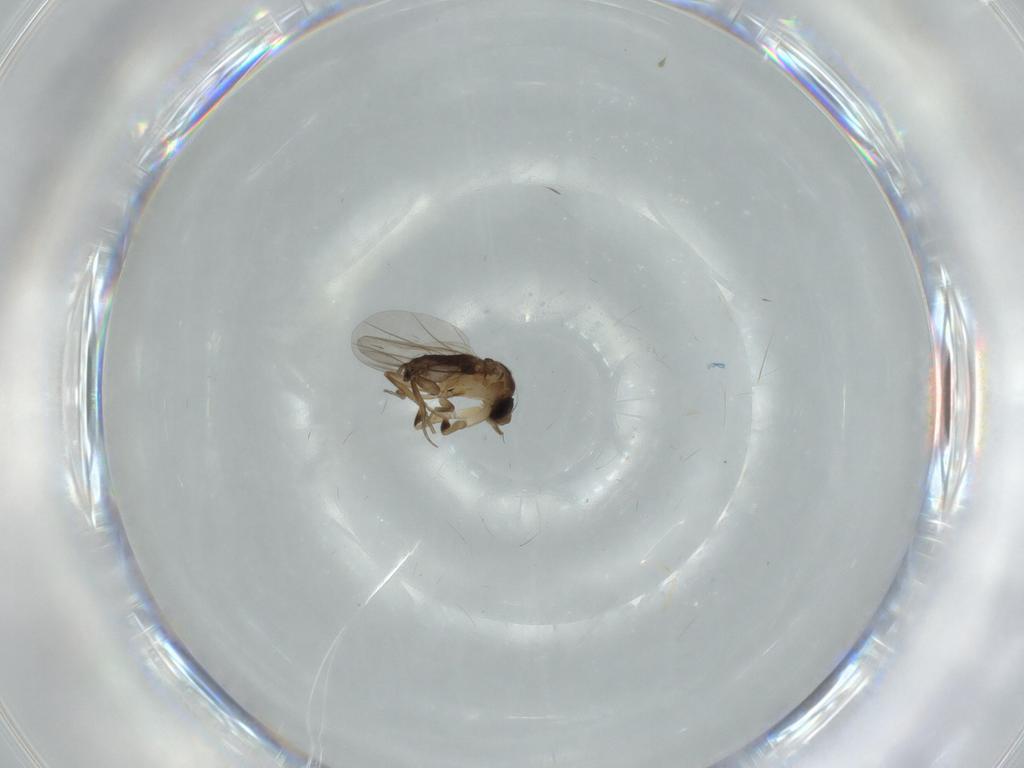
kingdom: Animalia
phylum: Arthropoda
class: Insecta
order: Diptera
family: Phoridae
